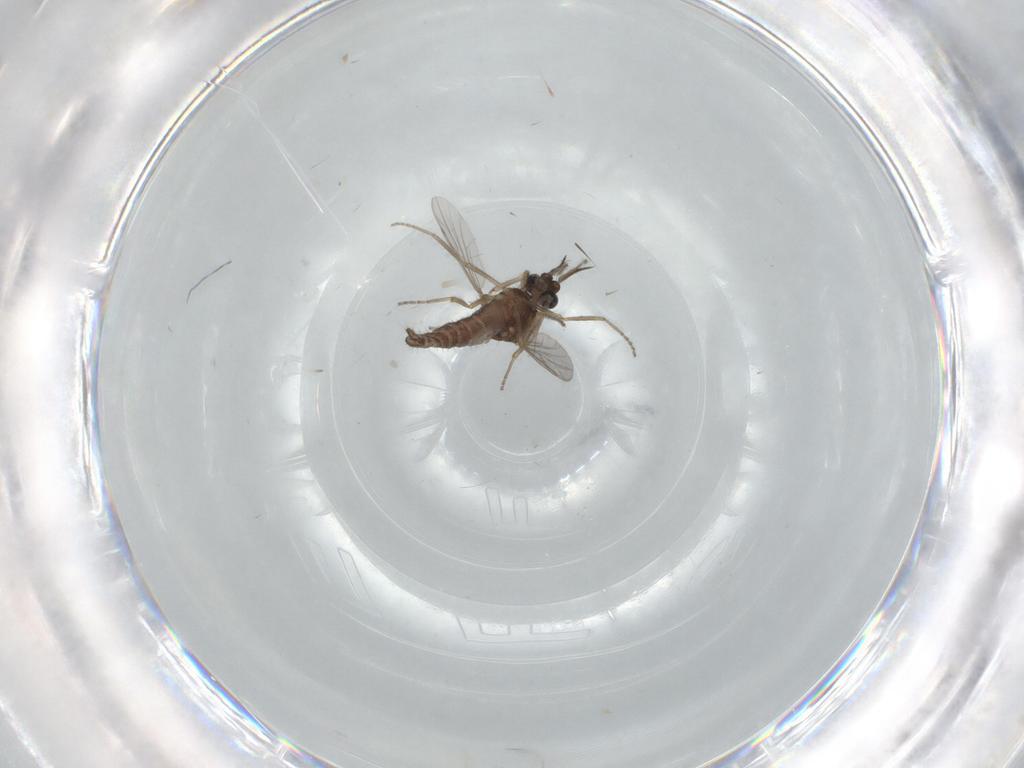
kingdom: Animalia
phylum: Arthropoda
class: Insecta
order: Diptera
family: Ceratopogonidae
